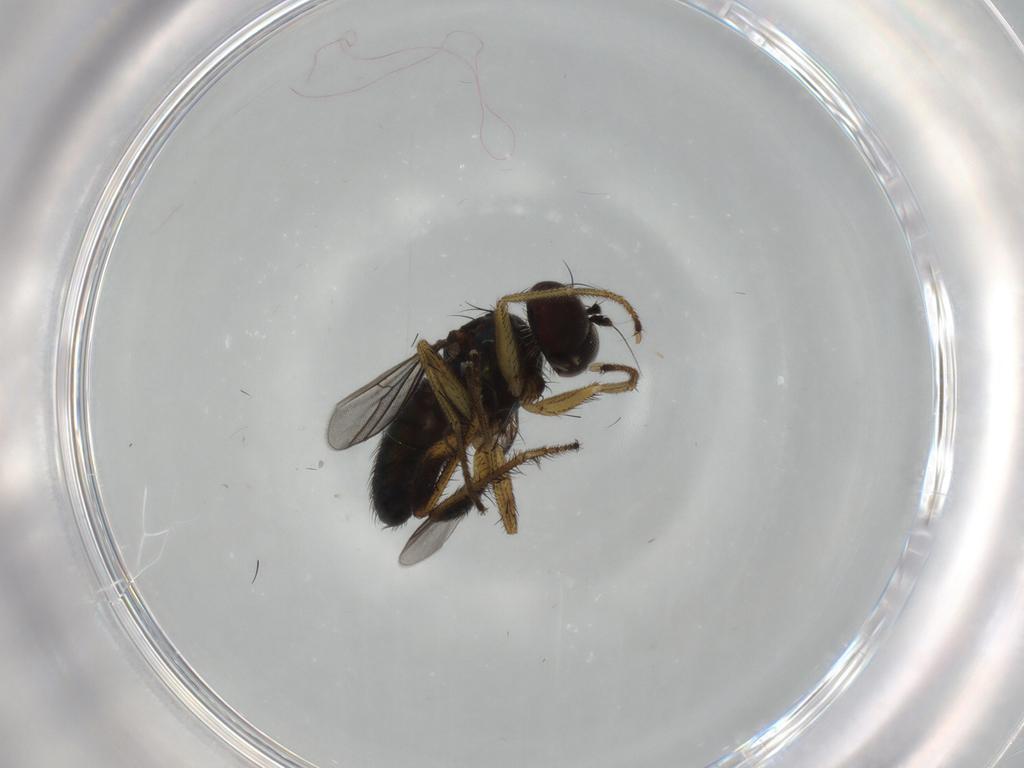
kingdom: Animalia
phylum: Arthropoda
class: Insecta
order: Diptera
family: Dolichopodidae
